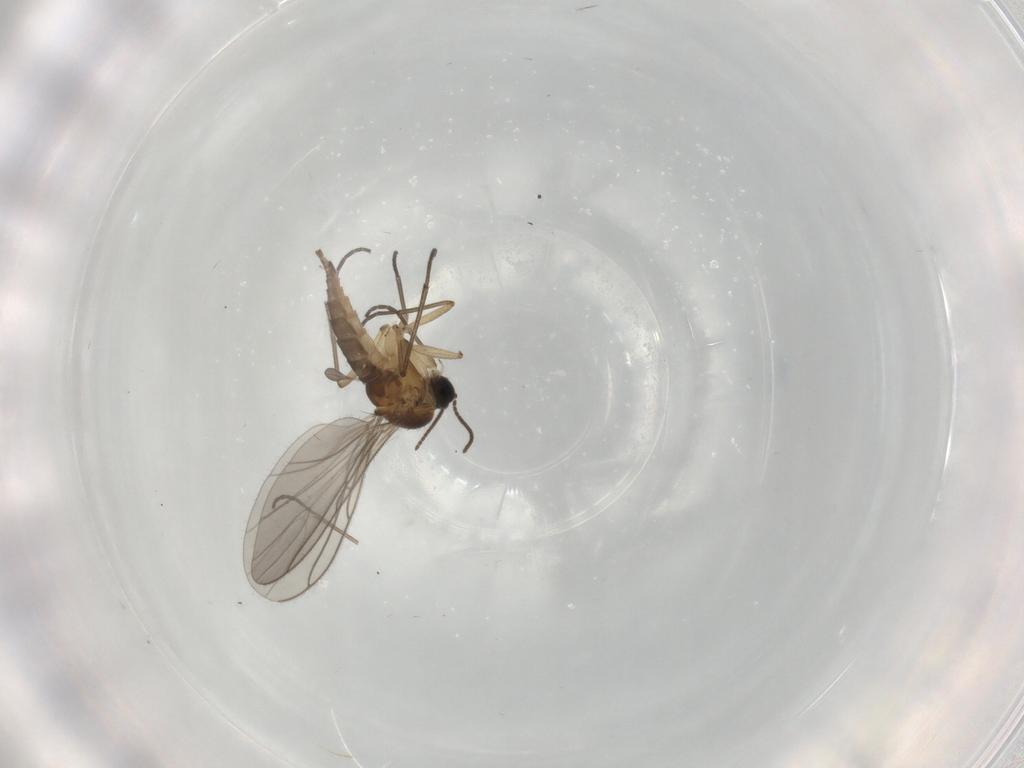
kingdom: Animalia
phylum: Arthropoda
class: Insecta
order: Diptera
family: Sciaridae
